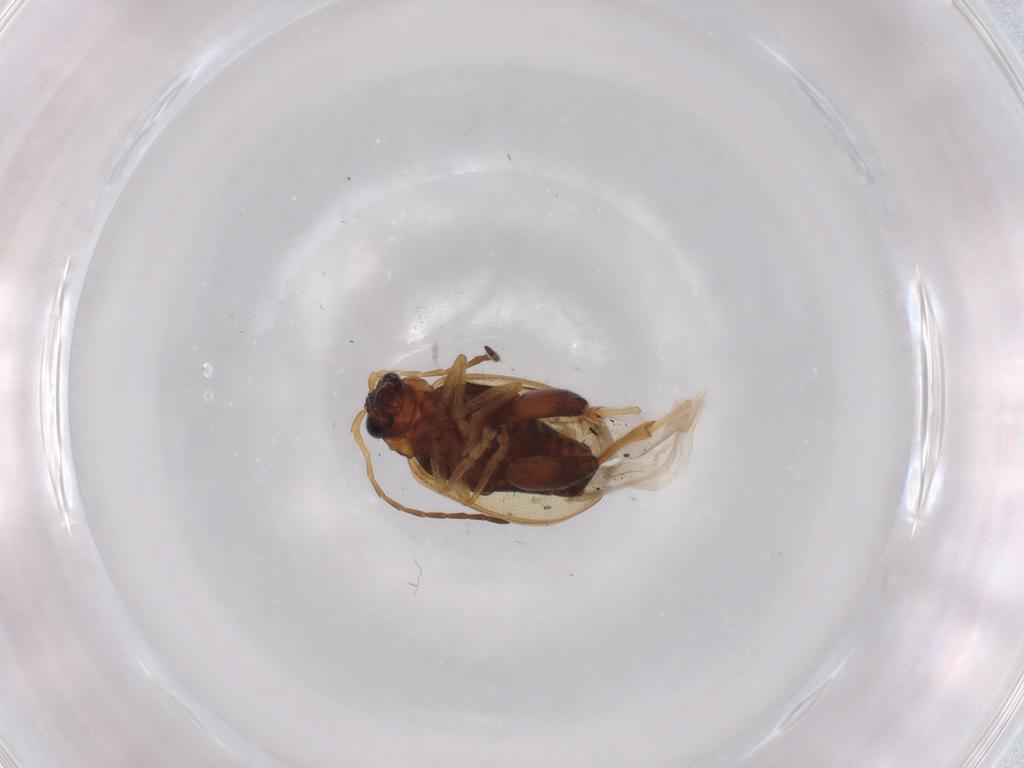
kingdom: Animalia
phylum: Arthropoda
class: Insecta
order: Coleoptera
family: Chrysomelidae
